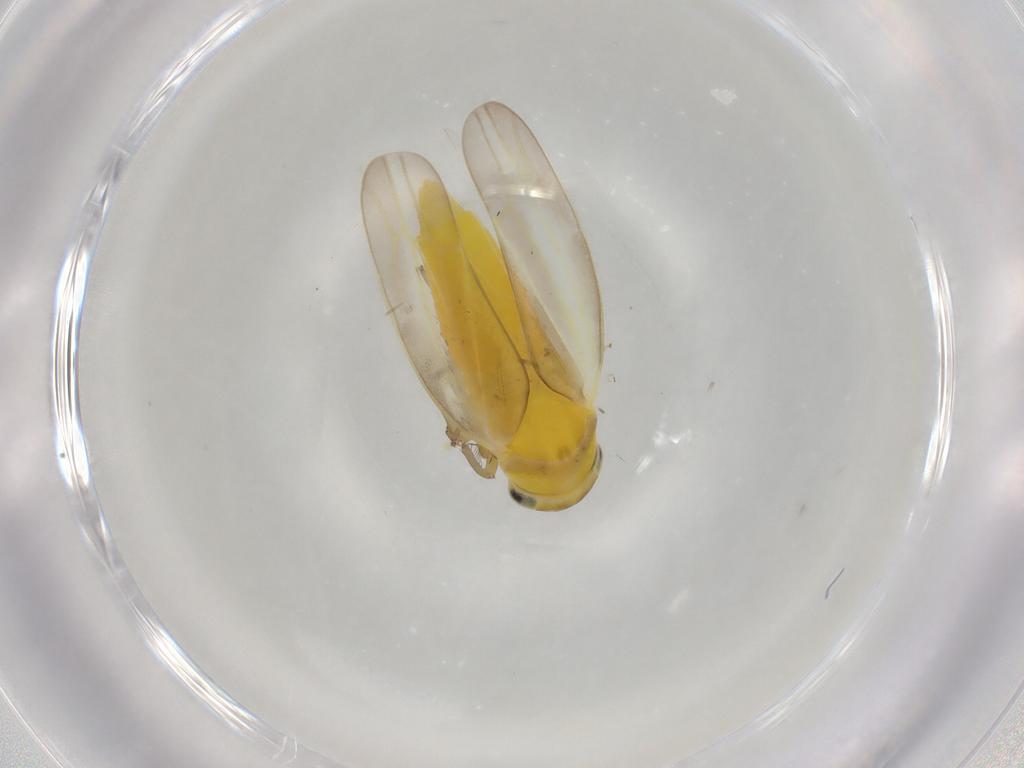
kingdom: Animalia
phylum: Arthropoda
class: Insecta
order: Hemiptera
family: Cicadellidae
